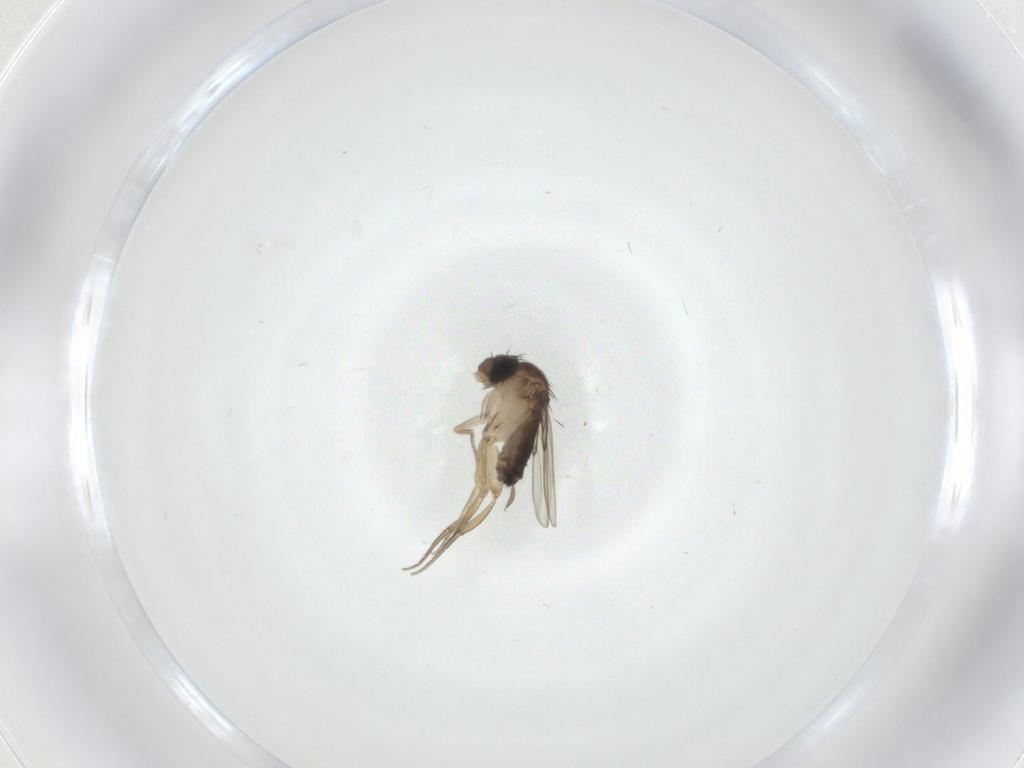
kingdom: Animalia
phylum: Arthropoda
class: Insecta
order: Diptera
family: Phoridae
